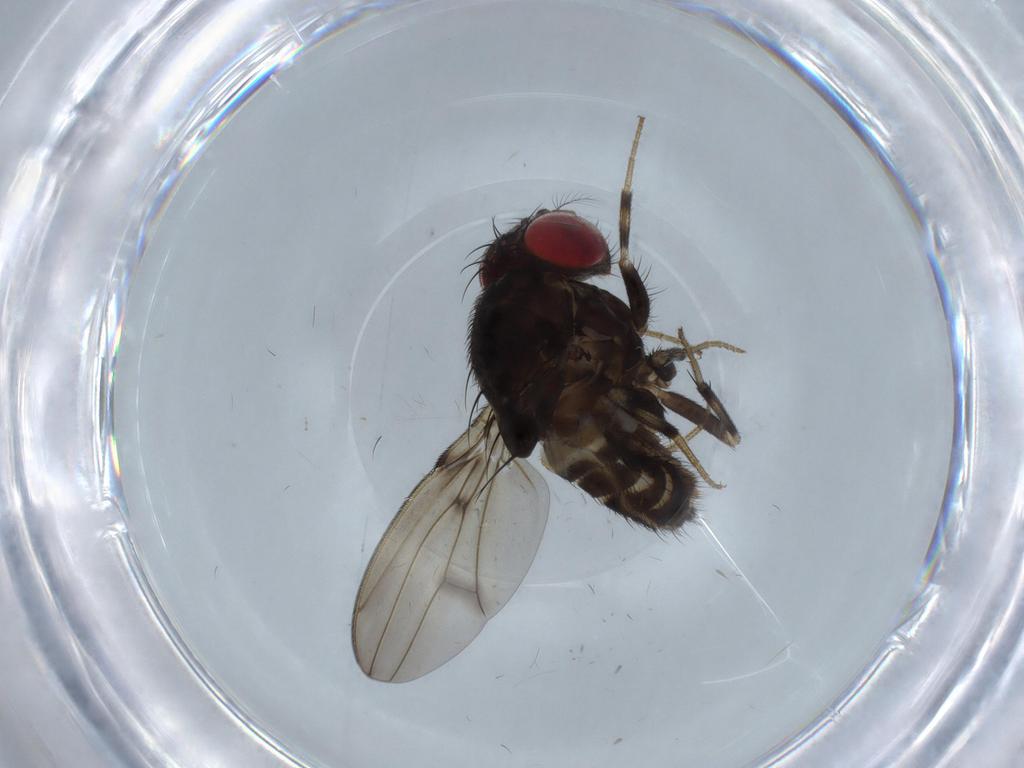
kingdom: Animalia
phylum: Arthropoda
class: Insecta
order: Diptera
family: Drosophilidae
